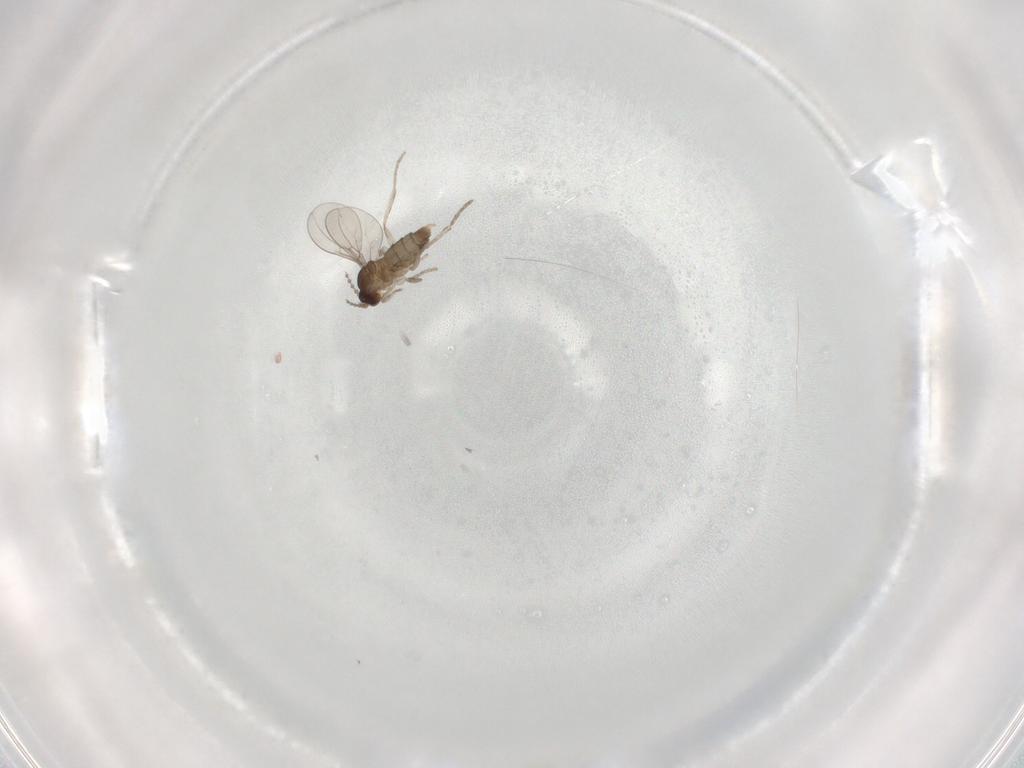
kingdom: Animalia
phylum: Arthropoda
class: Insecta
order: Diptera
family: Cecidomyiidae
